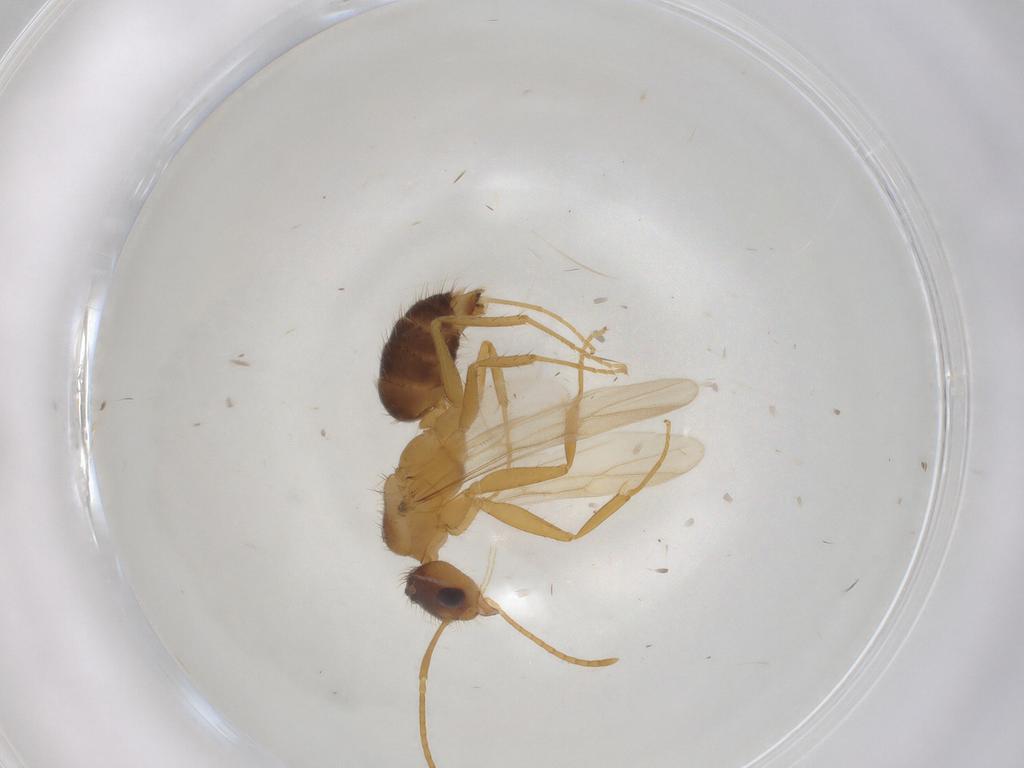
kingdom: Animalia
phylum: Arthropoda
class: Insecta
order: Hymenoptera
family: Formicidae
